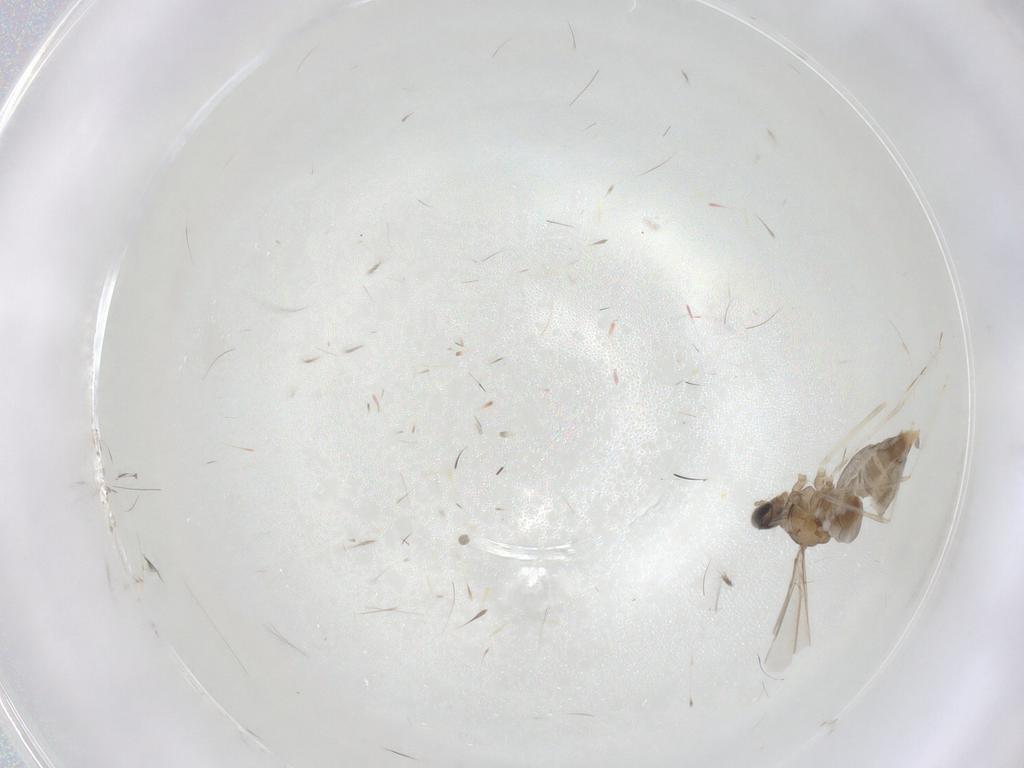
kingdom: Animalia
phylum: Arthropoda
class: Insecta
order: Diptera
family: Cecidomyiidae
